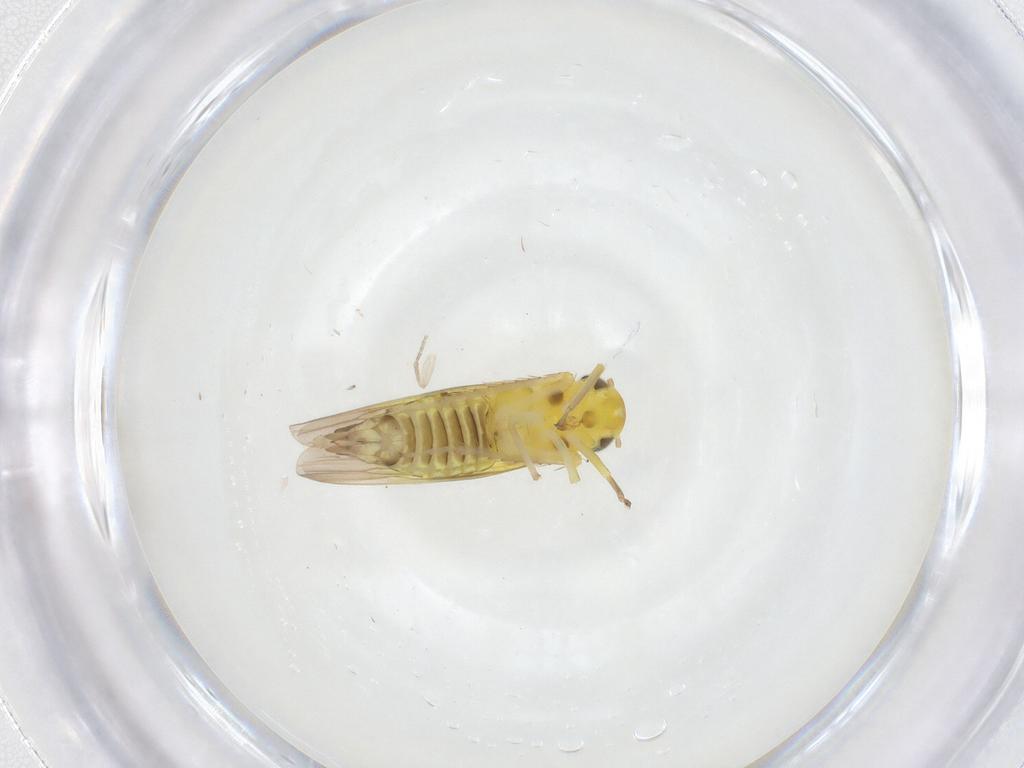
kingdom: Animalia
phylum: Arthropoda
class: Insecta
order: Hemiptera
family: Cicadellidae
